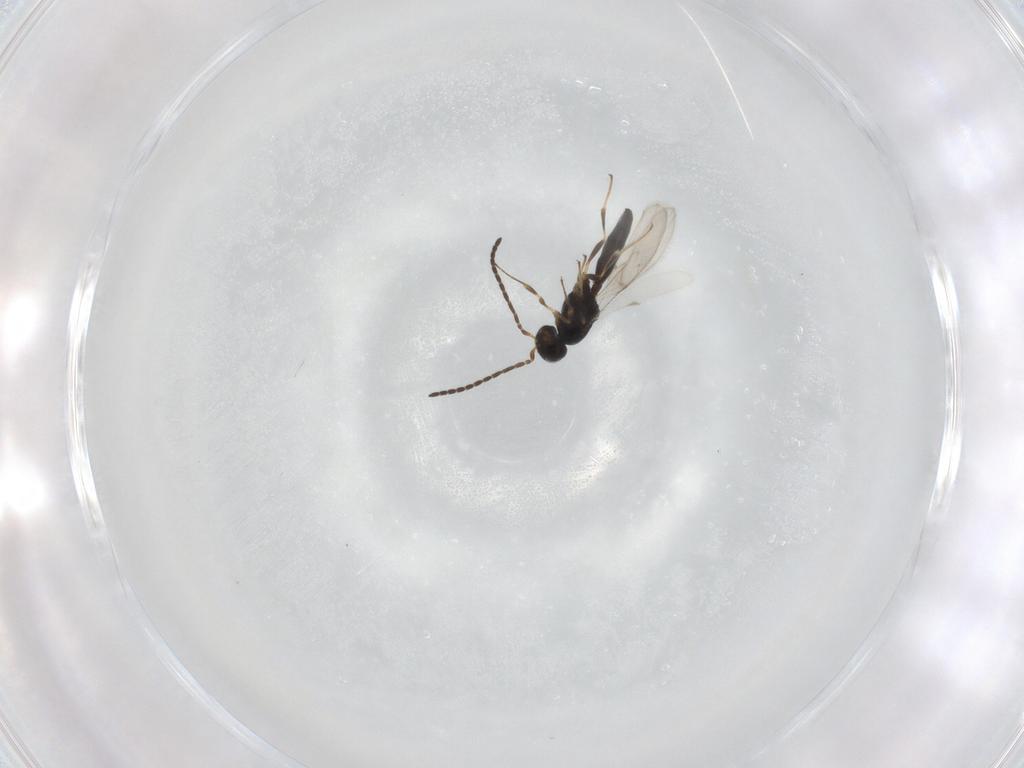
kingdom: Animalia
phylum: Arthropoda
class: Insecta
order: Hymenoptera
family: Scelionidae
